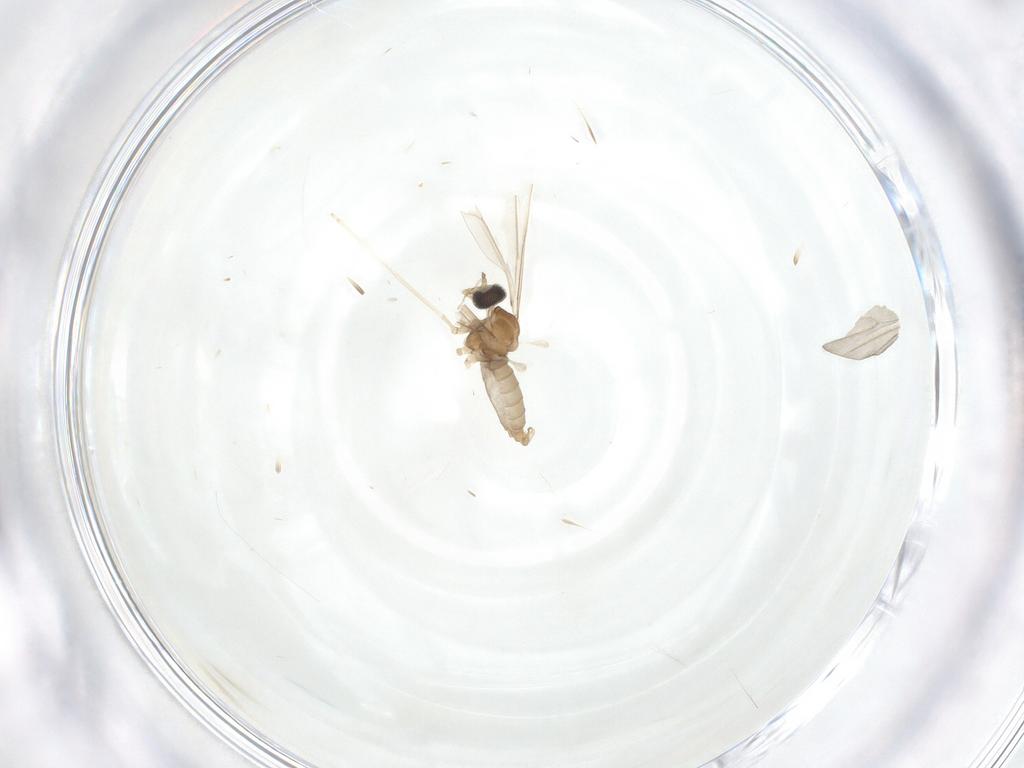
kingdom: Animalia
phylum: Arthropoda
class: Insecta
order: Diptera
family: Cecidomyiidae
